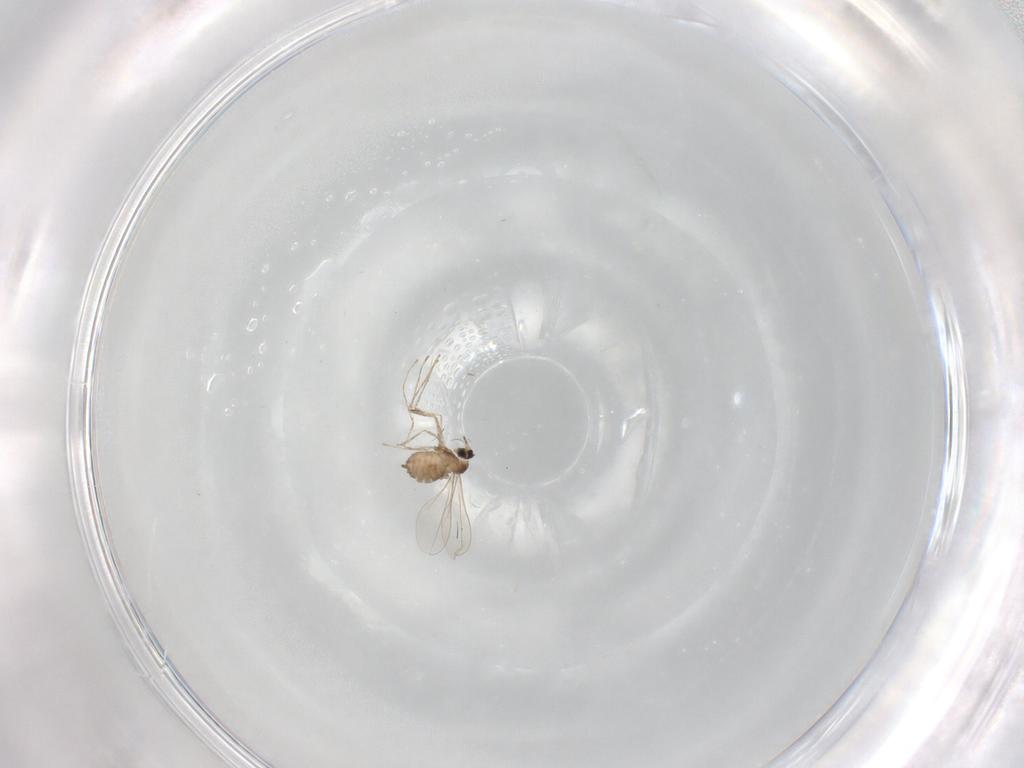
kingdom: Animalia
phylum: Arthropoda
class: Insecta
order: Diptera
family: Cecidomyiidae
